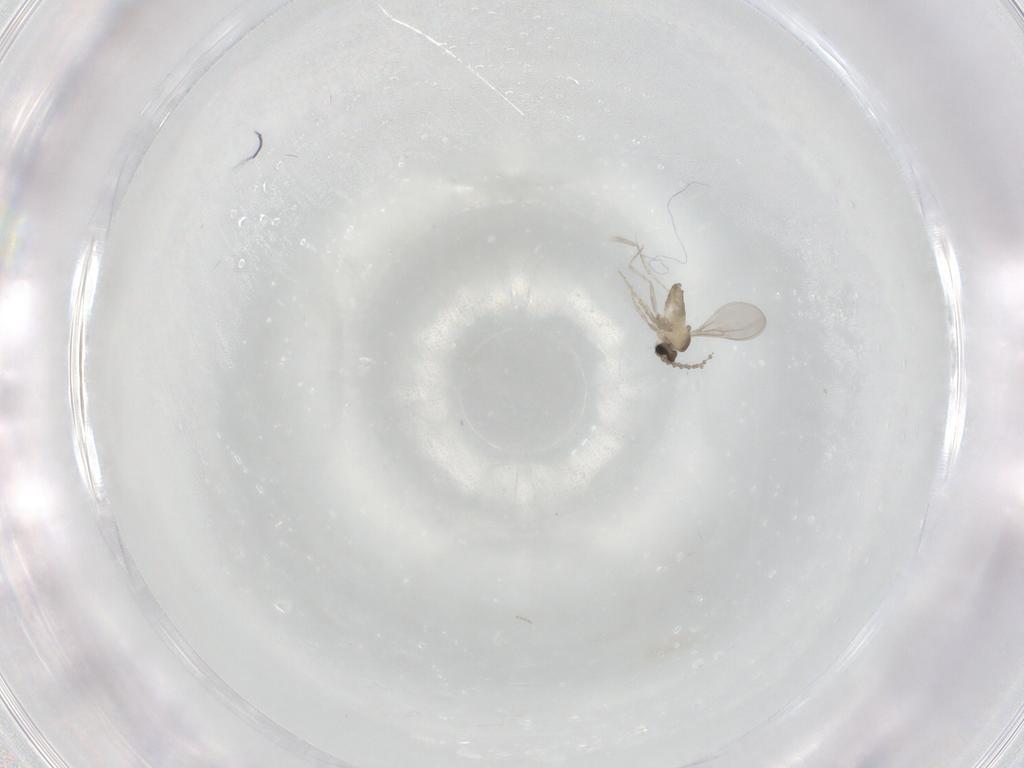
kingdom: Animalia
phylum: Arthropoda
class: Insecta
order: Diptera
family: Cecidomyiidae
